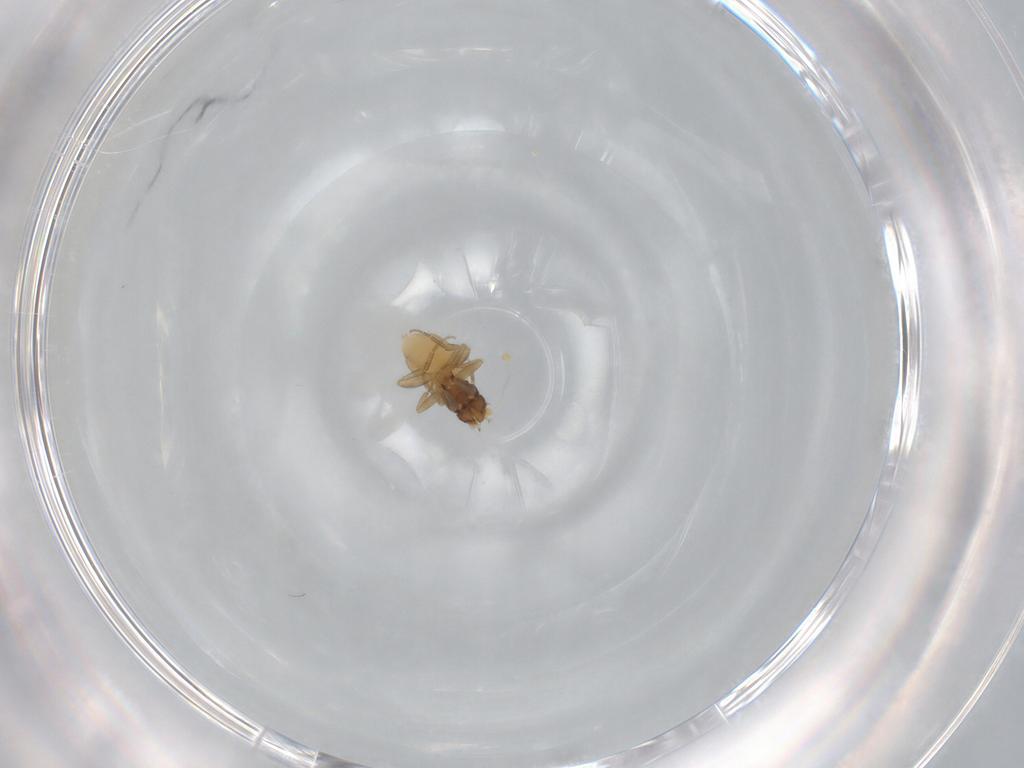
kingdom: Animalia
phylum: Arthropoda
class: Insecta
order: Diptera
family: Phoridae
